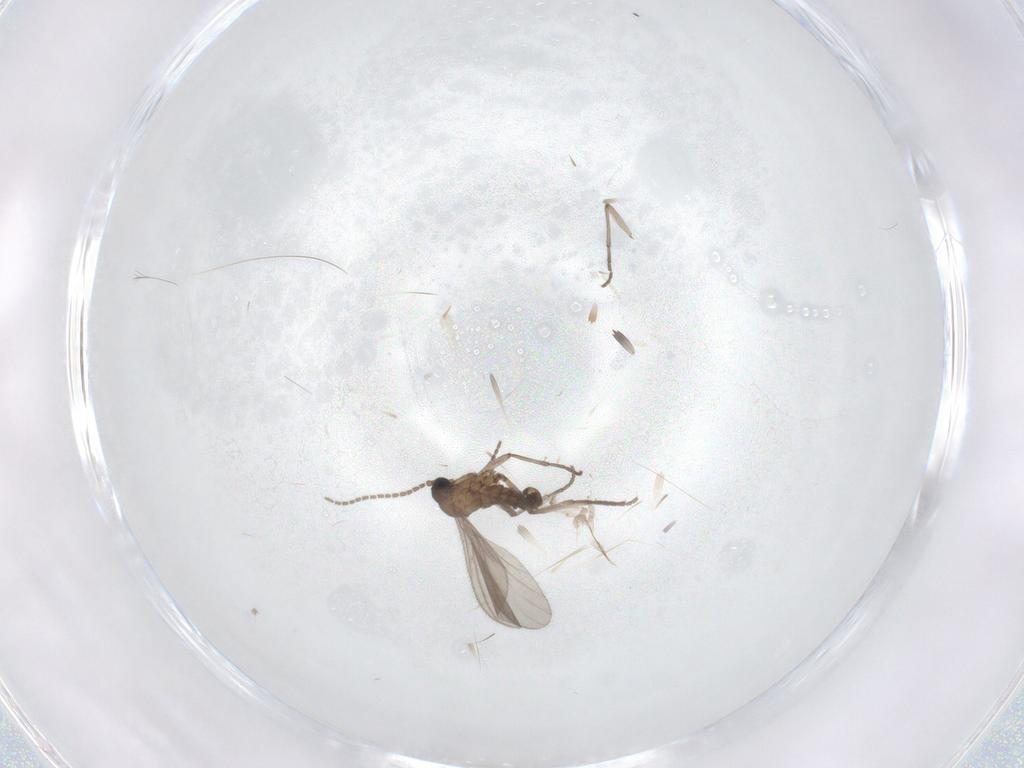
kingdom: Animalia
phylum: Arthropoda
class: Insecta
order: Diptera
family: Sciaridae
